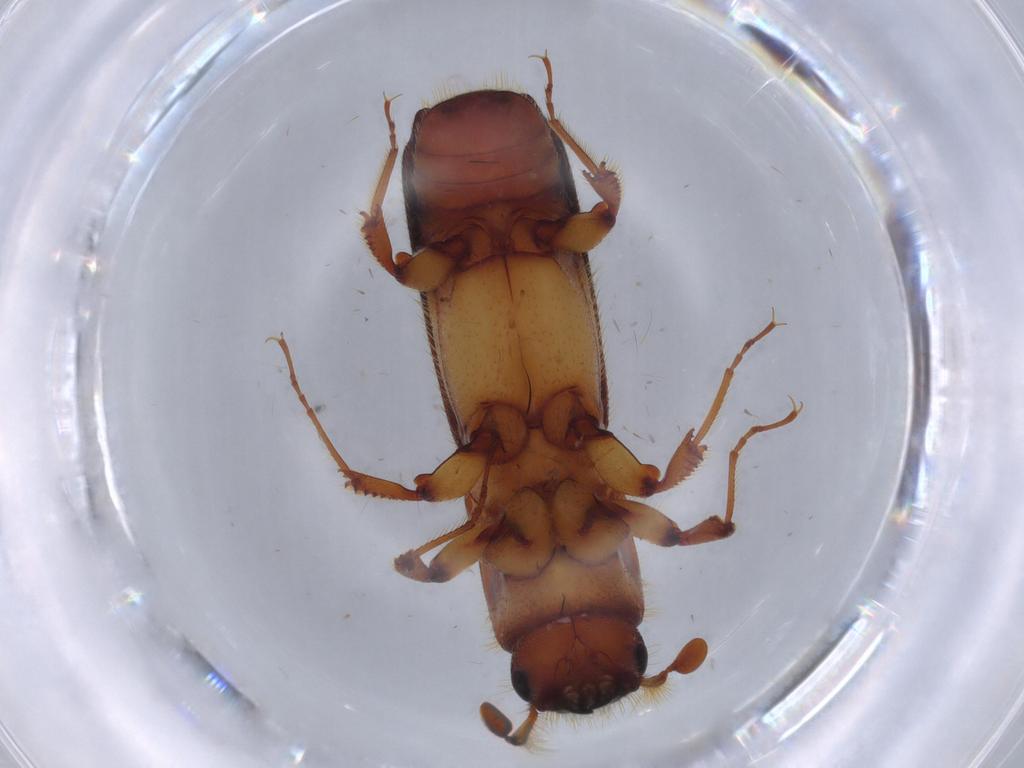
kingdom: Animalia
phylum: Arthropoda
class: Insecta
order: Coleoptera
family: Curculionidae
